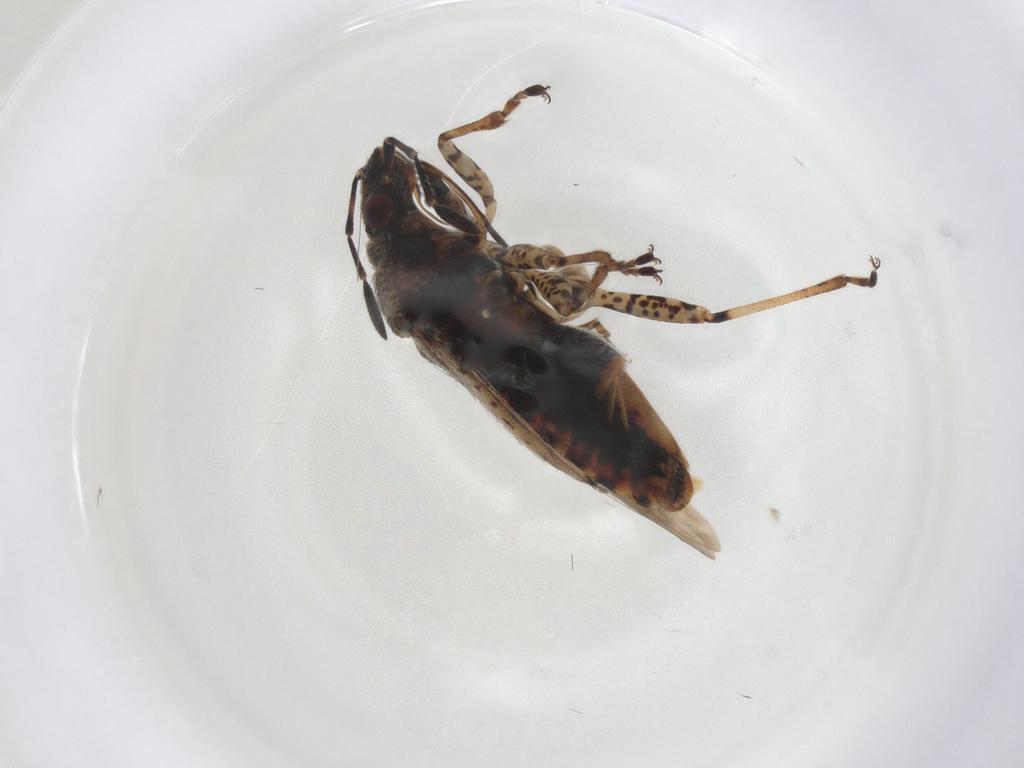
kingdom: Animalia
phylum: Arthropoda
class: Insecta
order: Hemiptera
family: Lygaeidae
